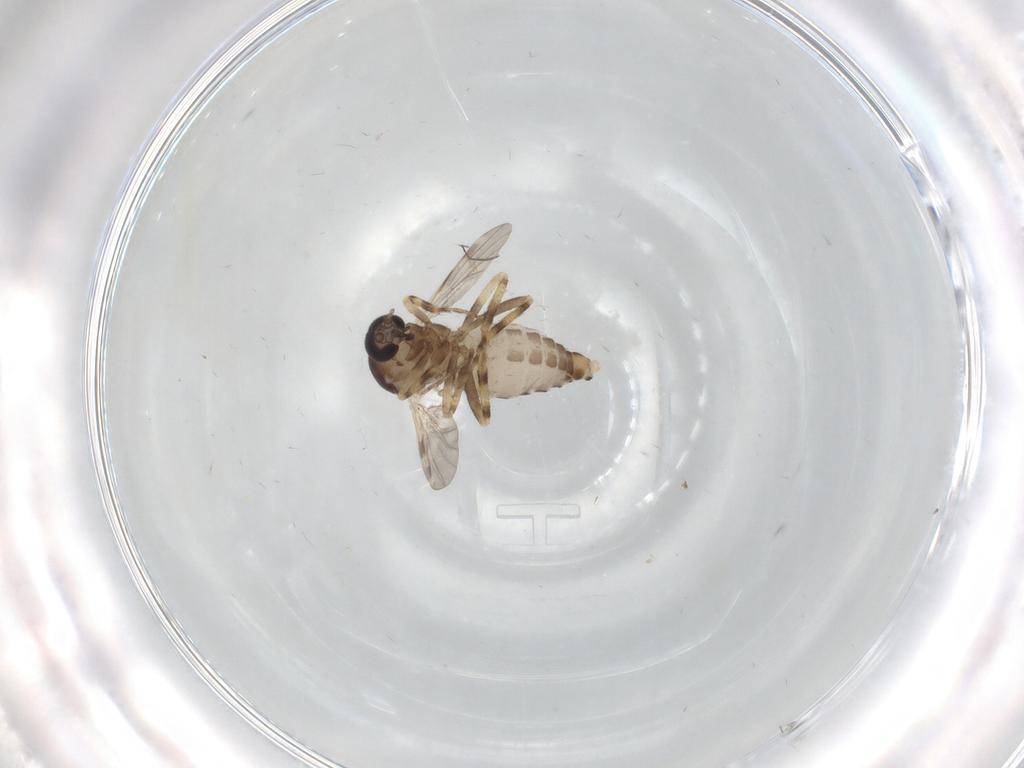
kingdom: Animalia
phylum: Arthropoda
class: Insecta
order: Diptera
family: Ceratopogonidae
